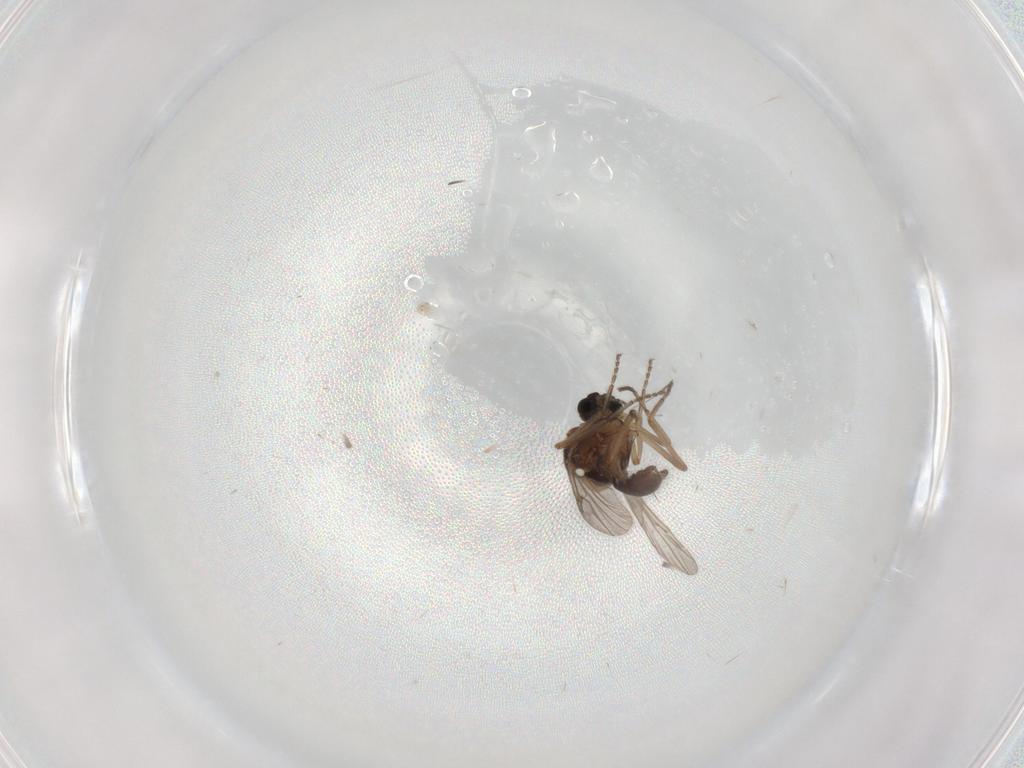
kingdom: Animalia
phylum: Arthropoda
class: Insecta
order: Diptera
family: Ceratopogonidae
